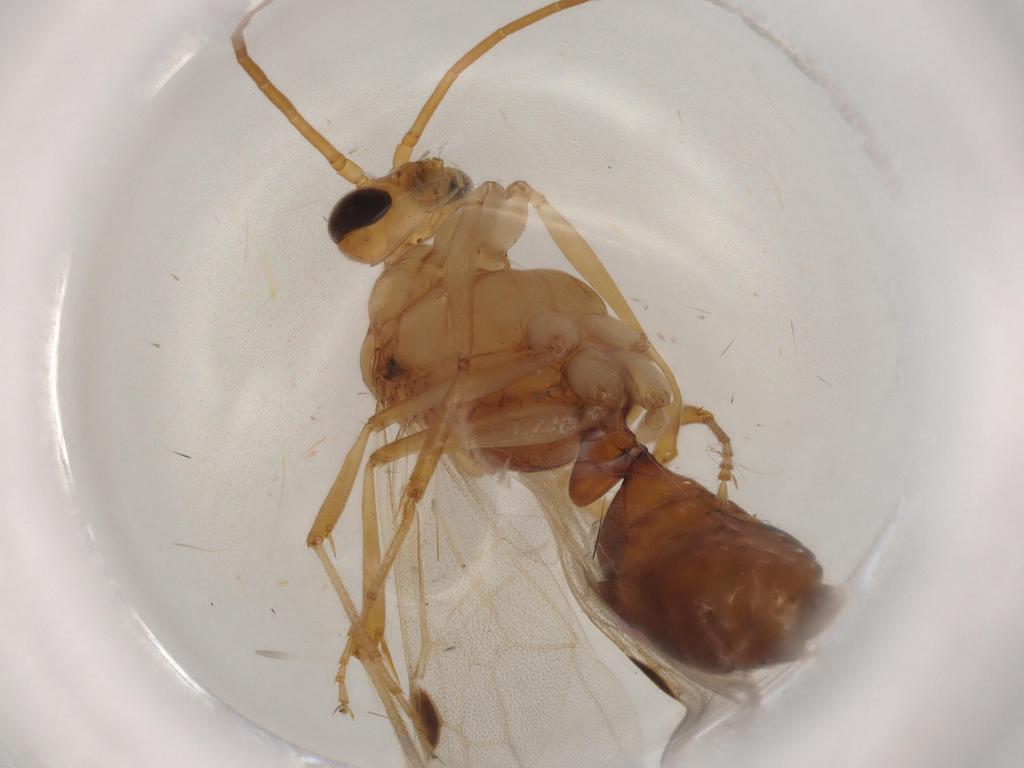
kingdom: Animalia
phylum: Arthropoda
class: Insecta
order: Hymenoptera
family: Formicidae
